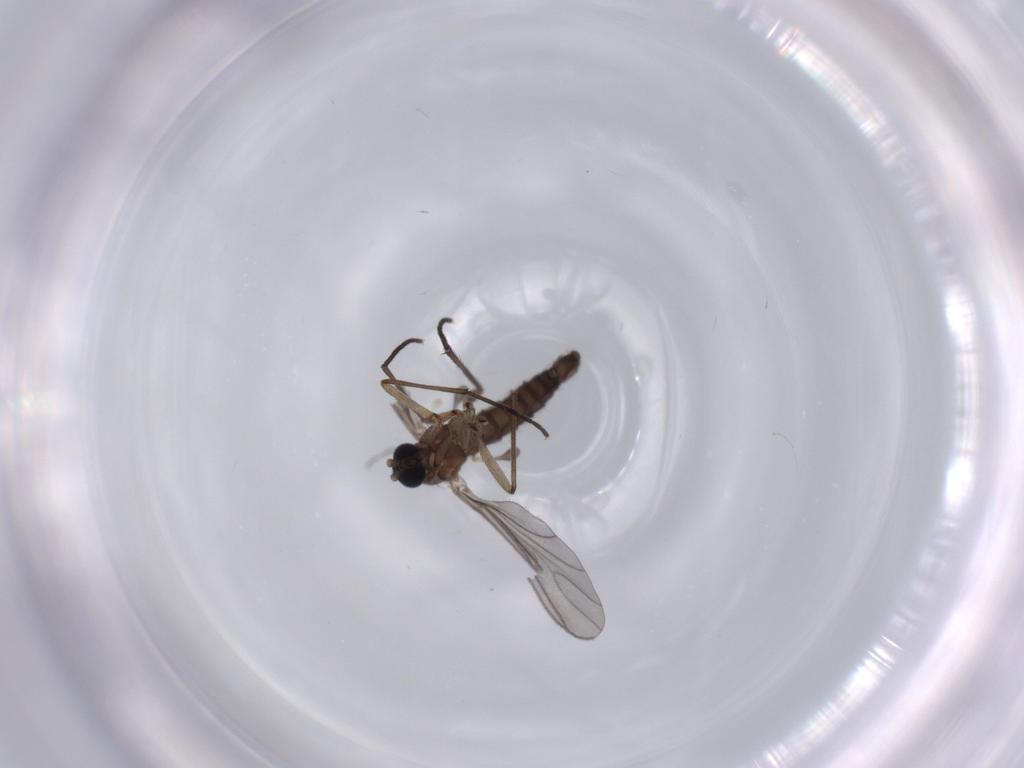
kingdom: Animalia
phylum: Arthropoda
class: Insecta
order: Diptera
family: Sciaridae
